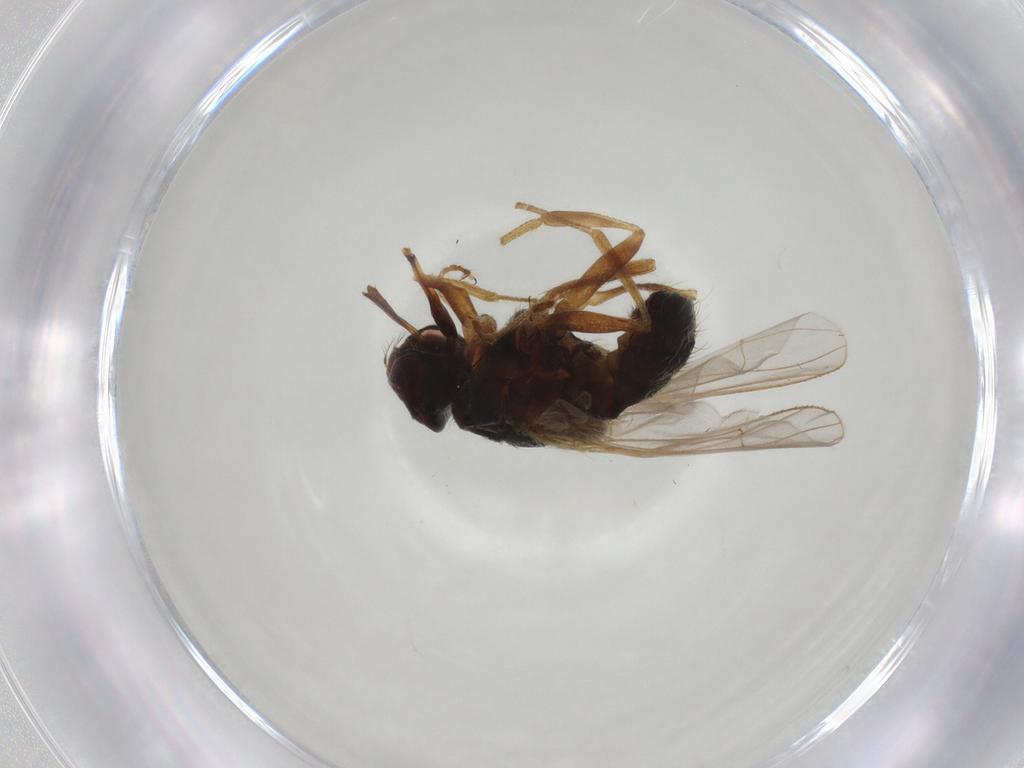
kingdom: Animalia
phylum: Arthropoda
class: Insecta
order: Diptera
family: Muscidae
